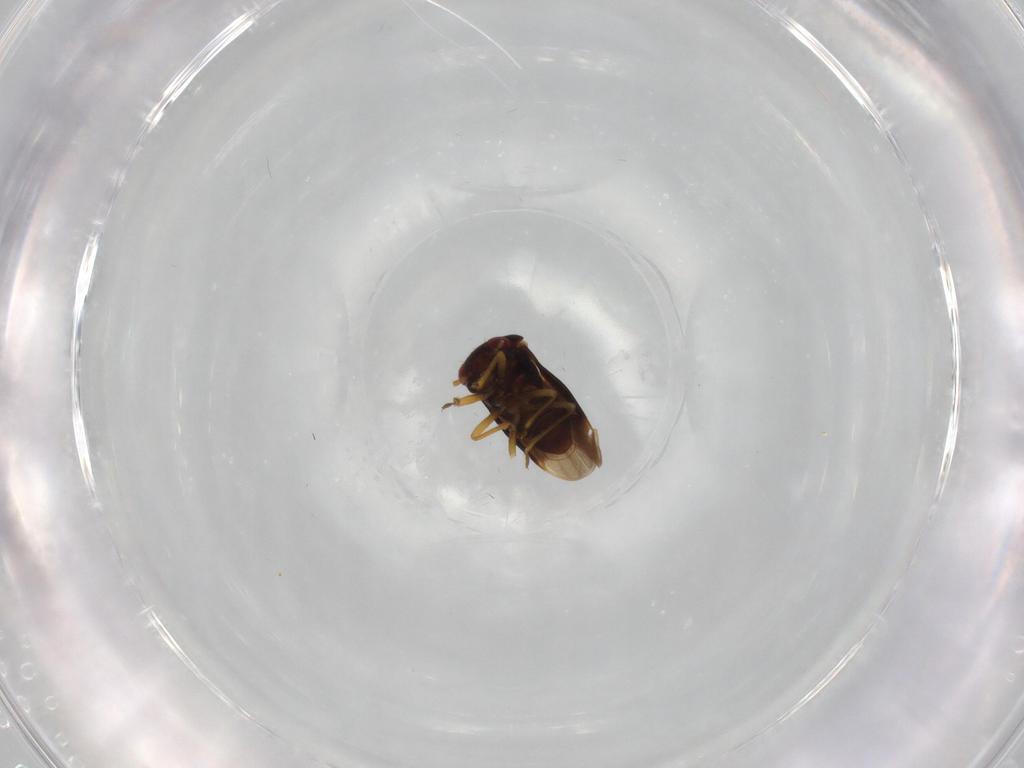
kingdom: Animalia
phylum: Arthropoda
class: Insecta
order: Hemiptera
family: Schizopteridae
